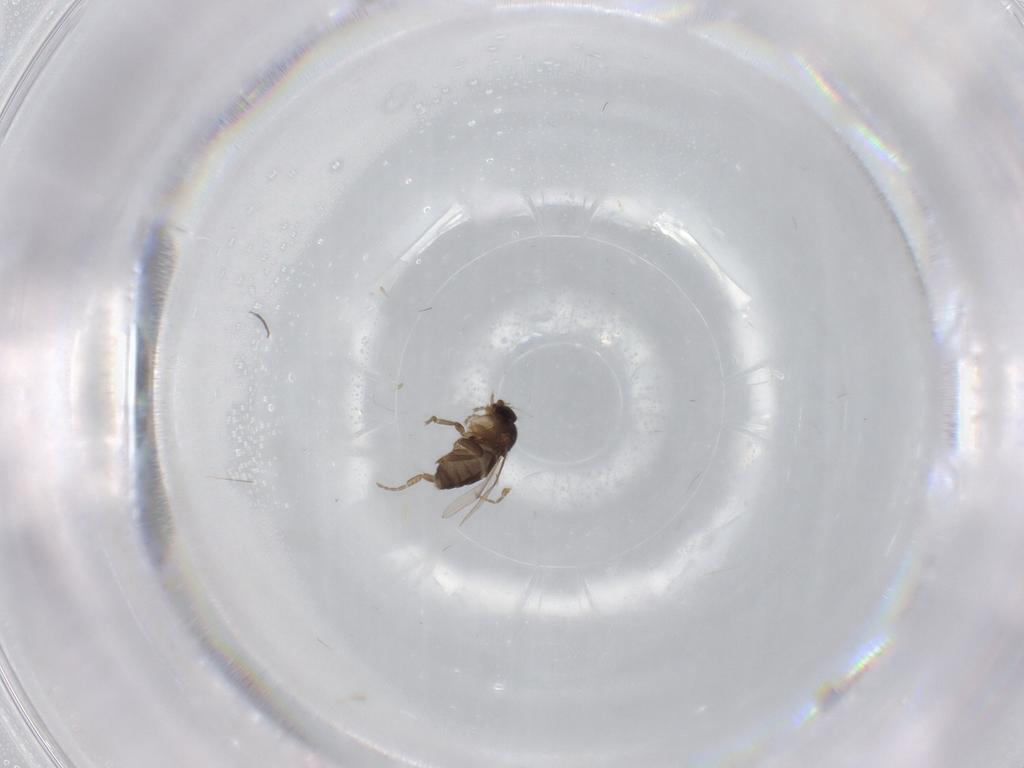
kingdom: Animalia
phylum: Arthropoda
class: Insecta
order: Diptera
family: Phoridae
